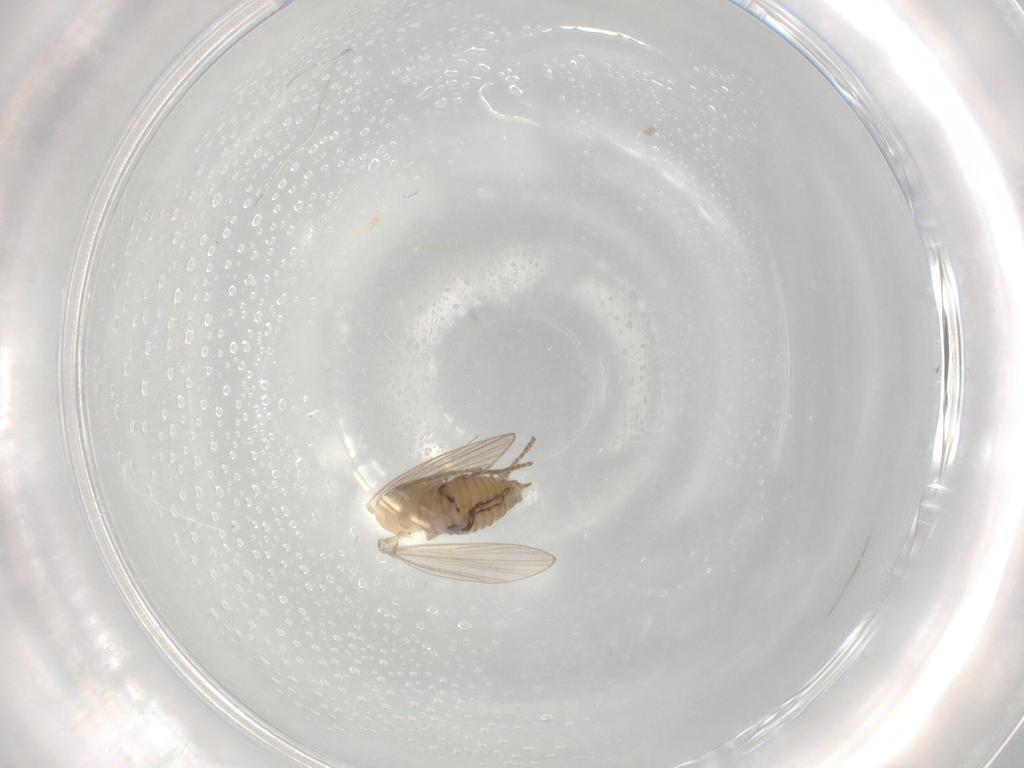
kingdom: Animalia
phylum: Arthropoda
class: Insecta
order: Diptera
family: Psychodidae
